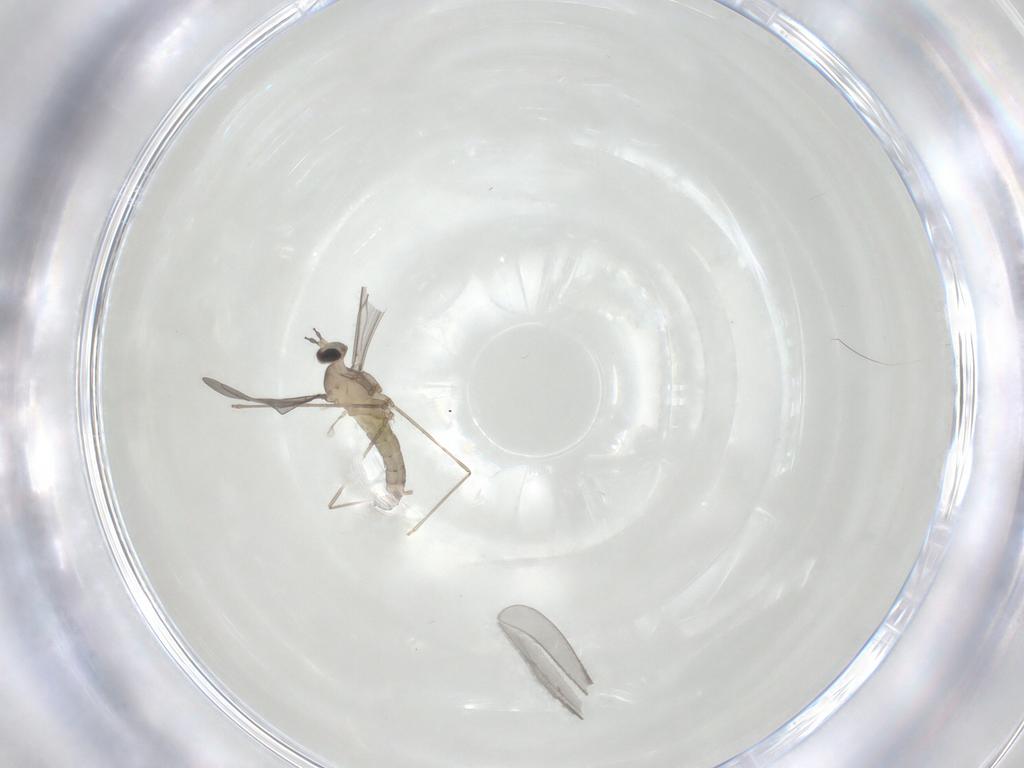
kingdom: Animalia
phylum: Arthropoda
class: Insecta
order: Diptera
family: Cecidomyiidae
